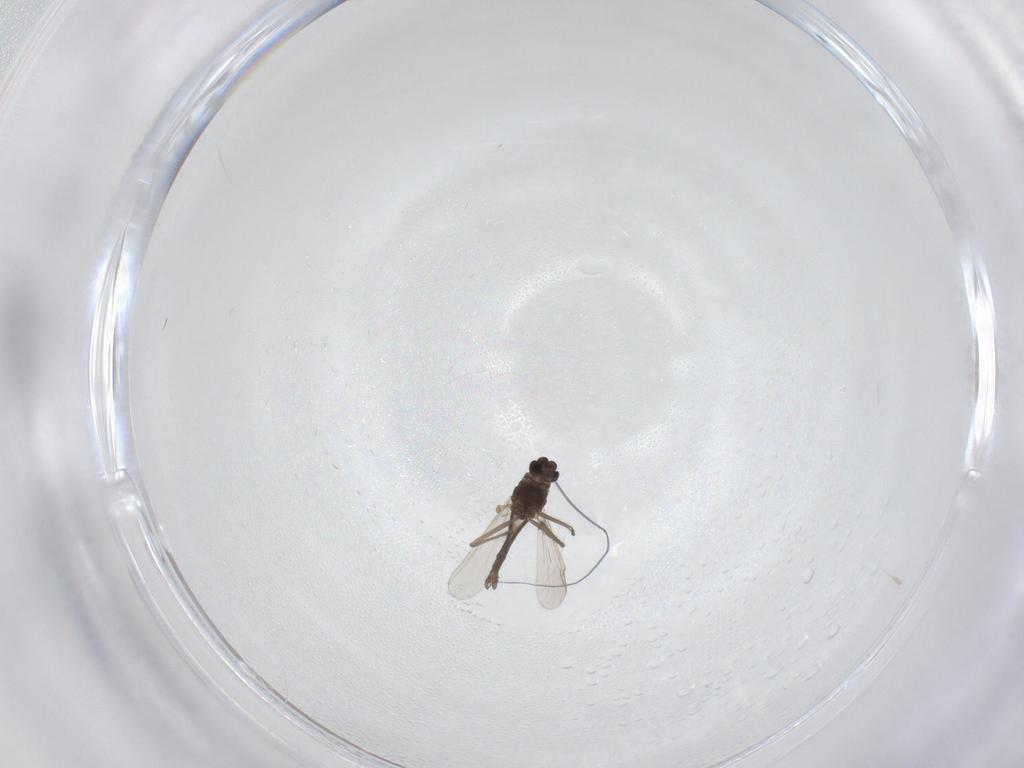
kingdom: Animalia
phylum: Arthropoda
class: Insecta
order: Diptera
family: Chironomidae
